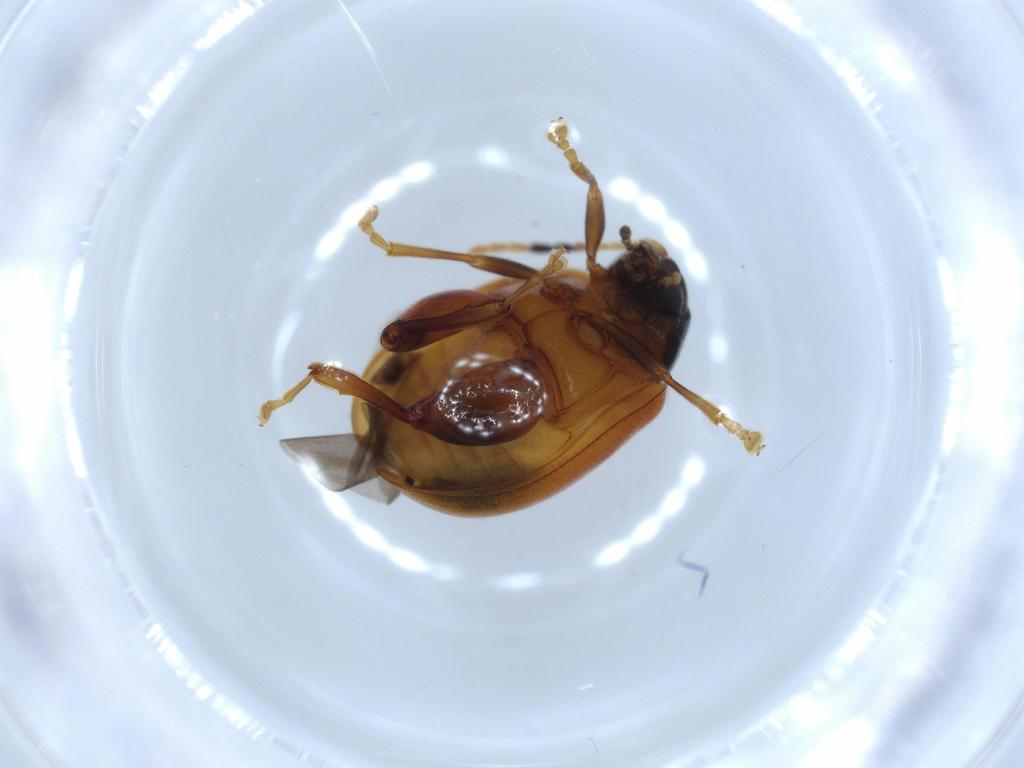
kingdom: Animalia
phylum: Arthropoda
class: Insecta
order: Coleoptera
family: Chrysomelidae
